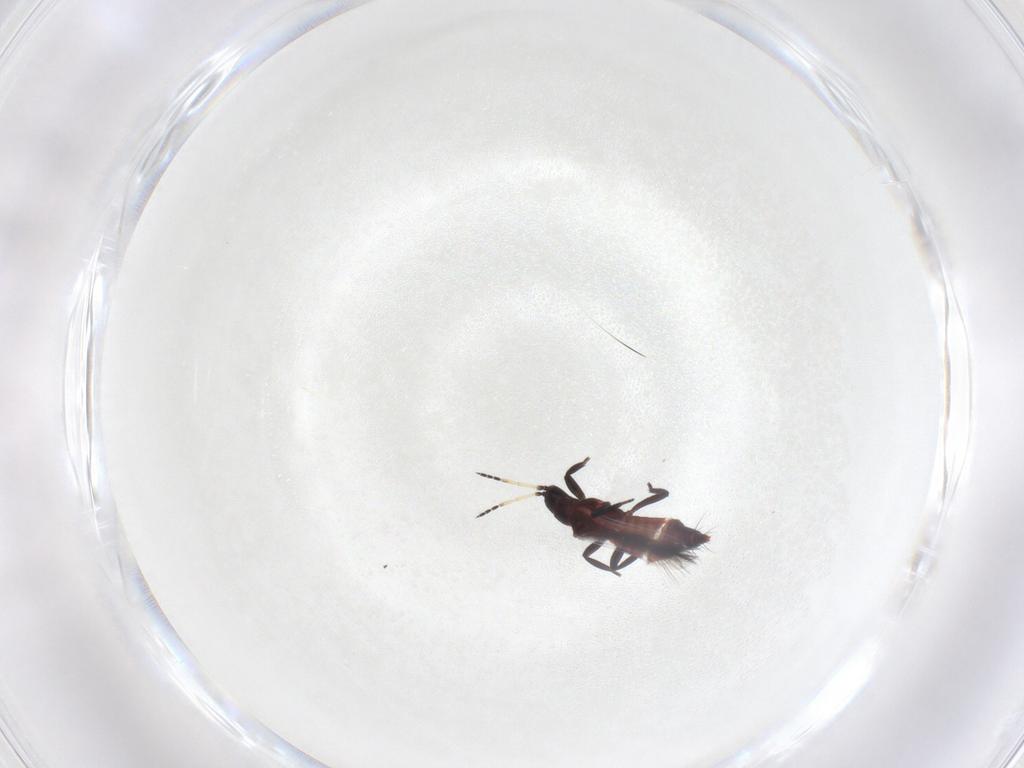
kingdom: Animalia
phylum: Arthropoda
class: Insecta
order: Thysanoptera
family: Aeolothripidae
